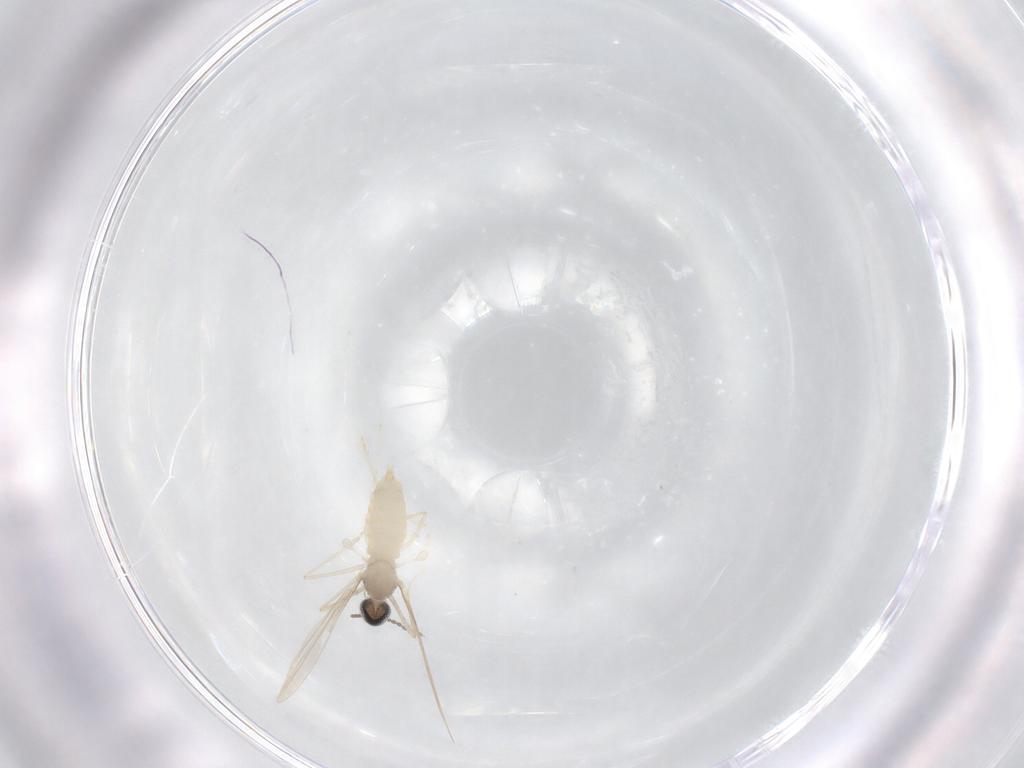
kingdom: Animalia
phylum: Arthropoda
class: Insecta
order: Diptera
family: Cecidomyiidae
